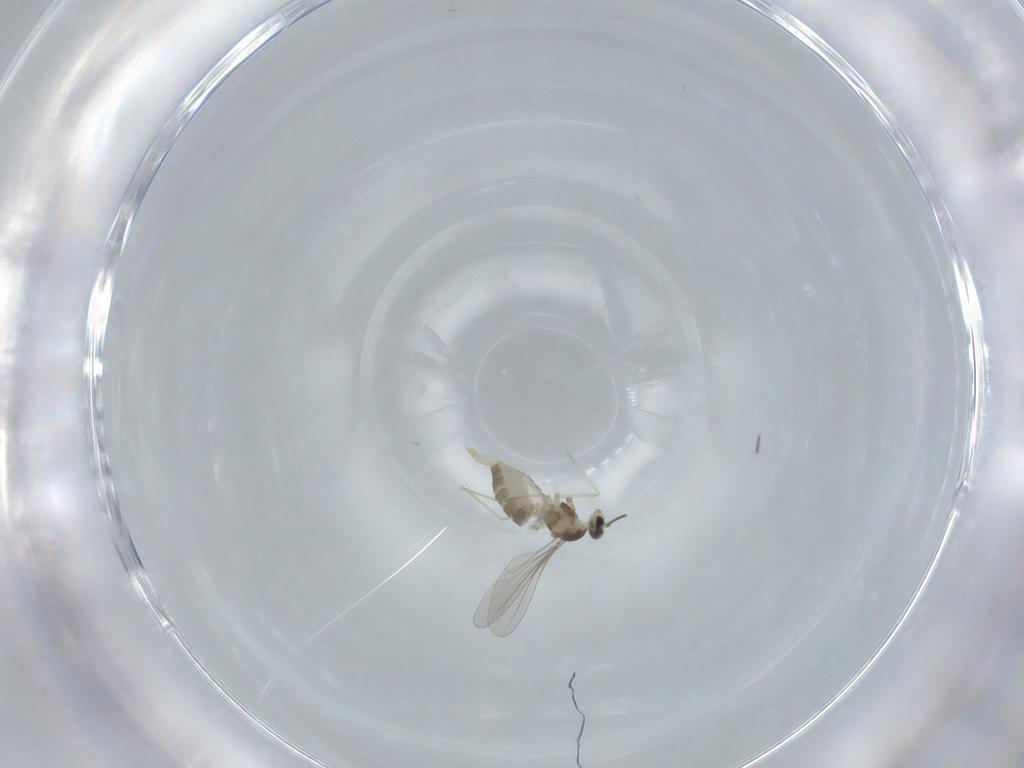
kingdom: Animalia
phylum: Arthropoda
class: Insecta
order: Diptera
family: Cecidomyiidae
